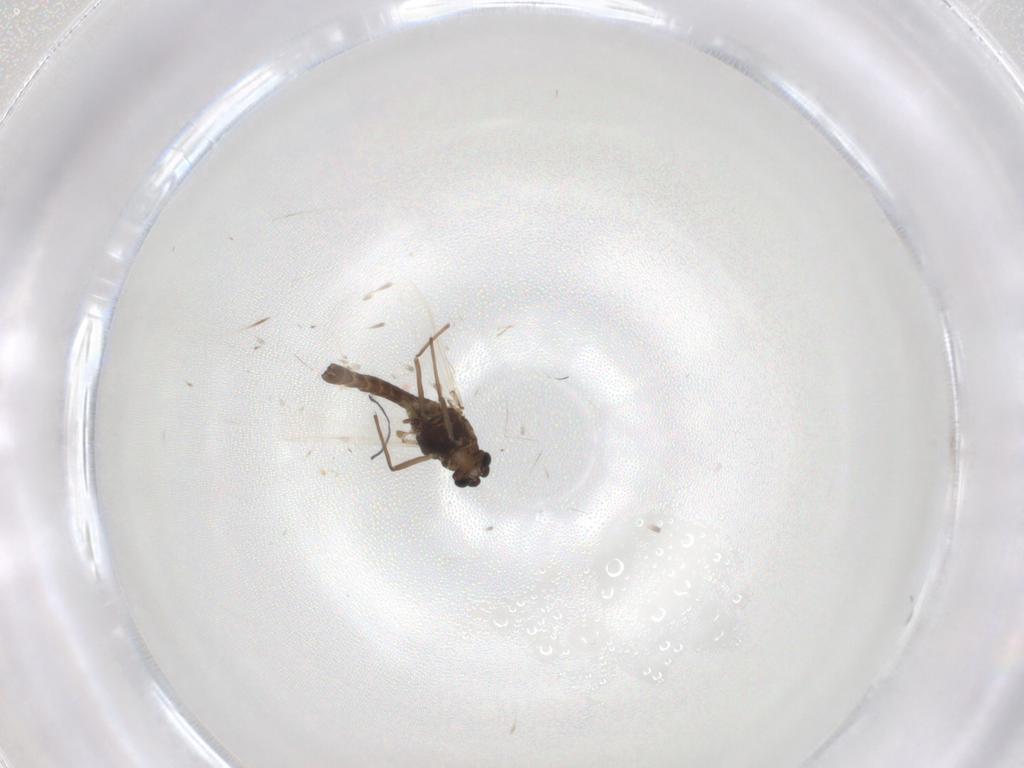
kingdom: Animalia
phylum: Arthropoda
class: Insecta
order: Diptera
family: Chironomidae
